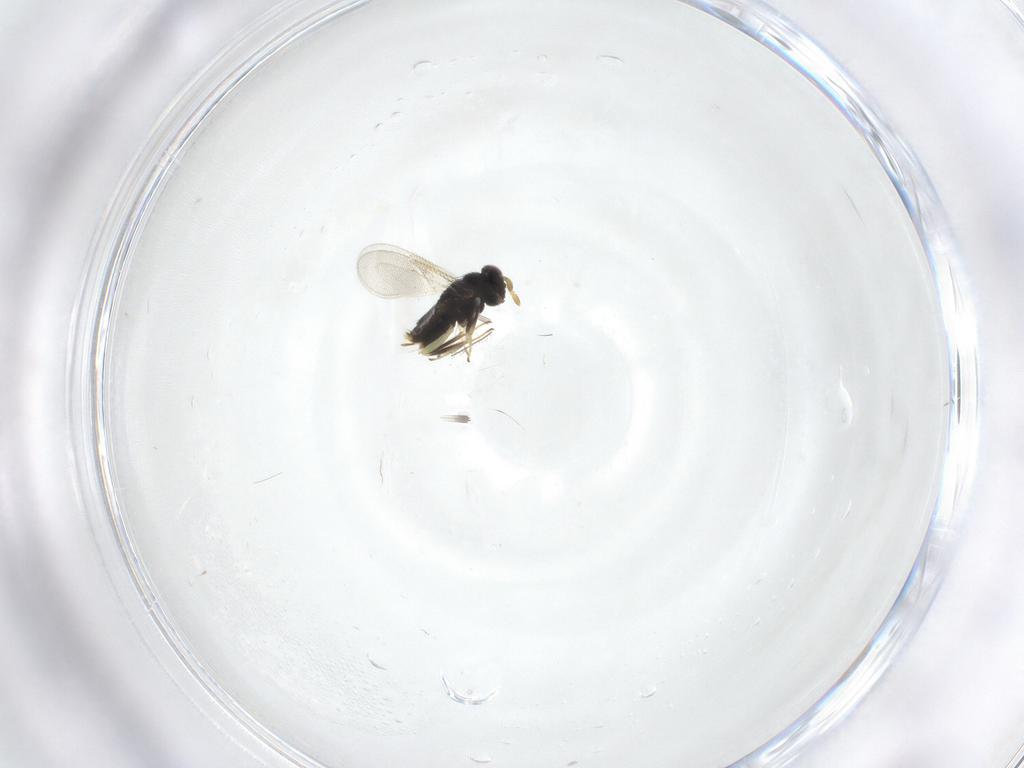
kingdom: Animalia
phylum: Arthropoda
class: Insecta
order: Hymenoptera
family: Aphelinidae
